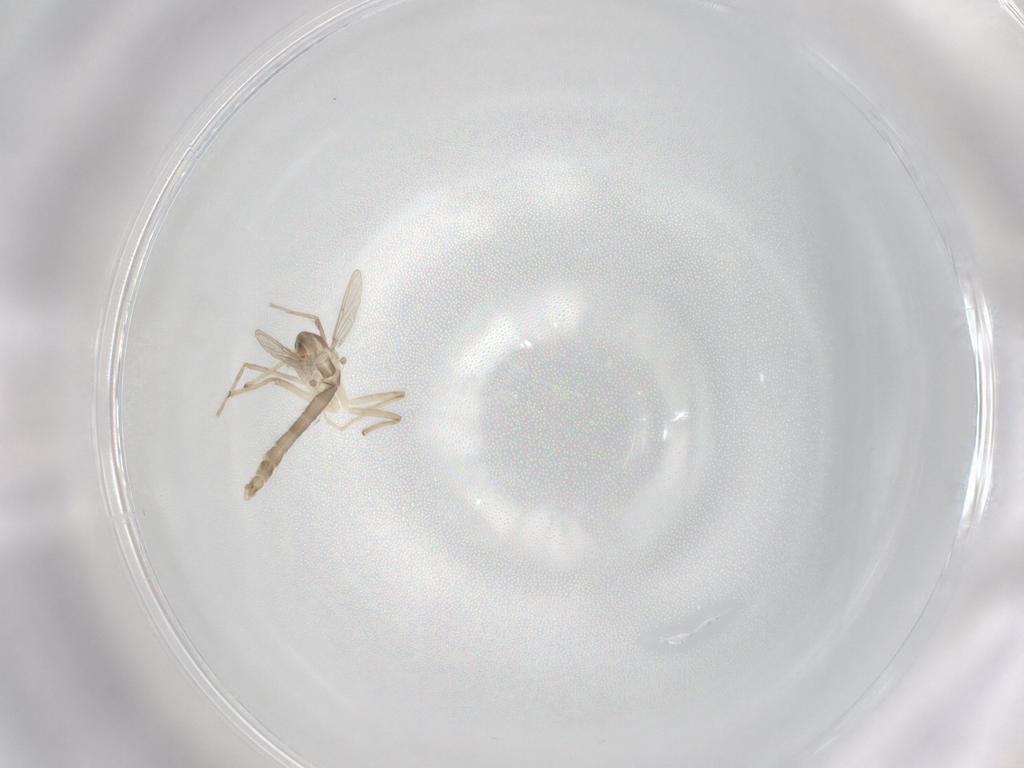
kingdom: Animalia
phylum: Arthropoda
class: Insecta
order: Diptera
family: Chironomidae
